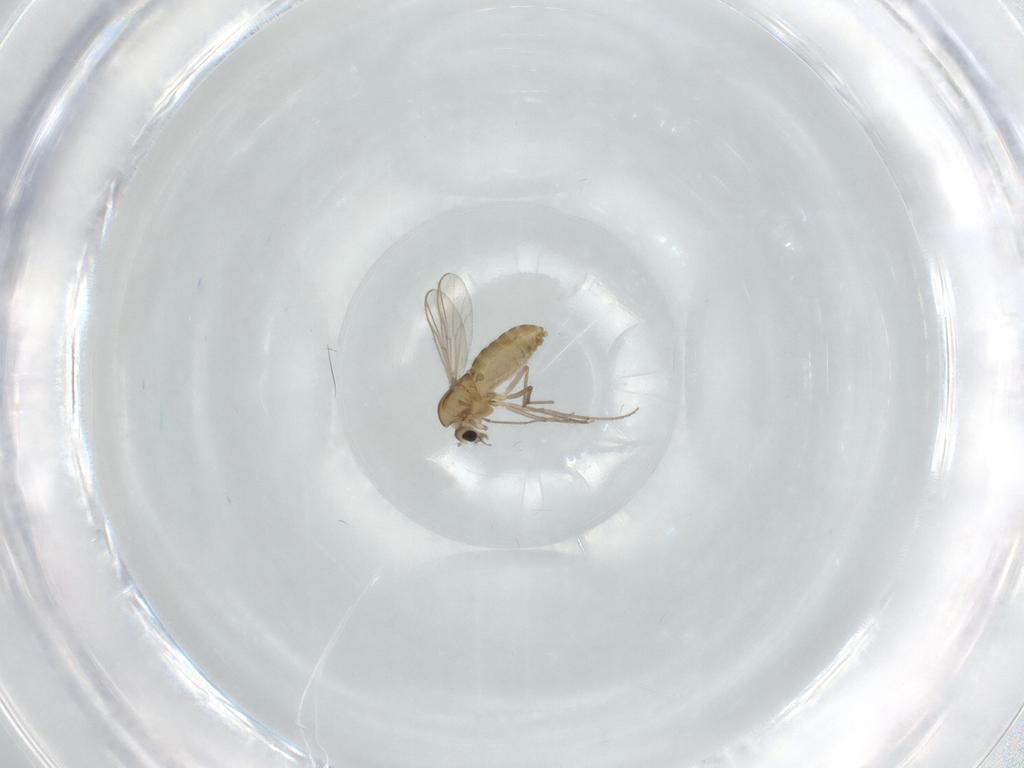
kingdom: Animalia
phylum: Arthropoda
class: Insecta
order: Diptera
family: Chironomidae
